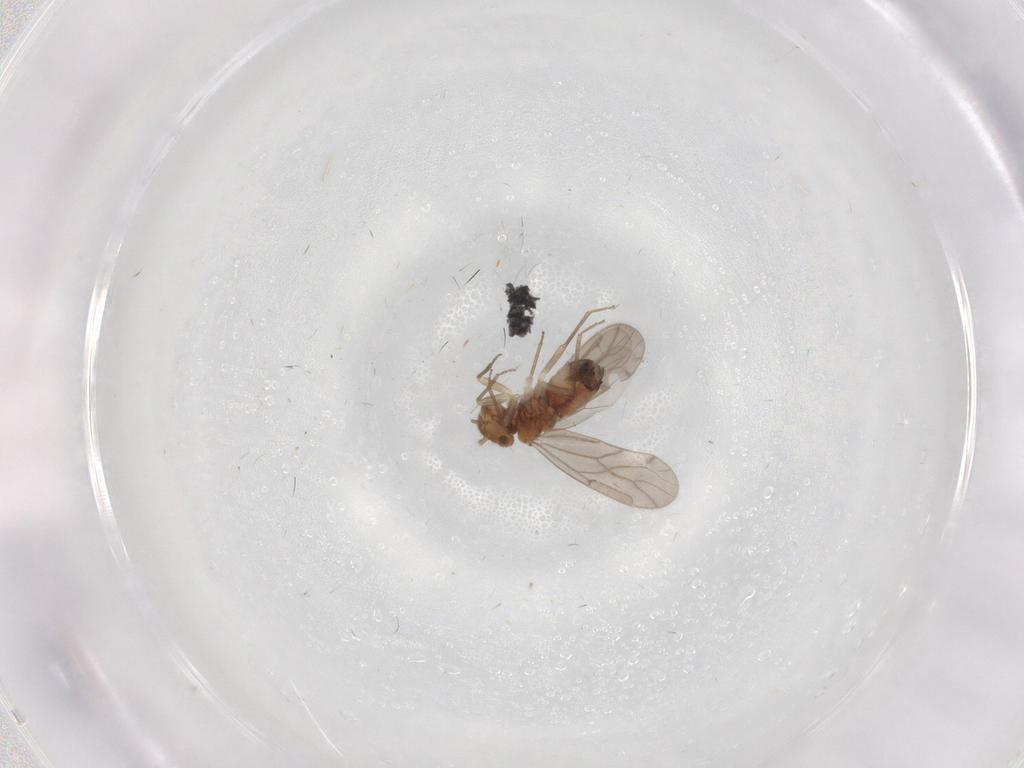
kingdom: Animalia
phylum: Arthropoda
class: Insecta
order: Psocodea
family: Ectopsocidae
